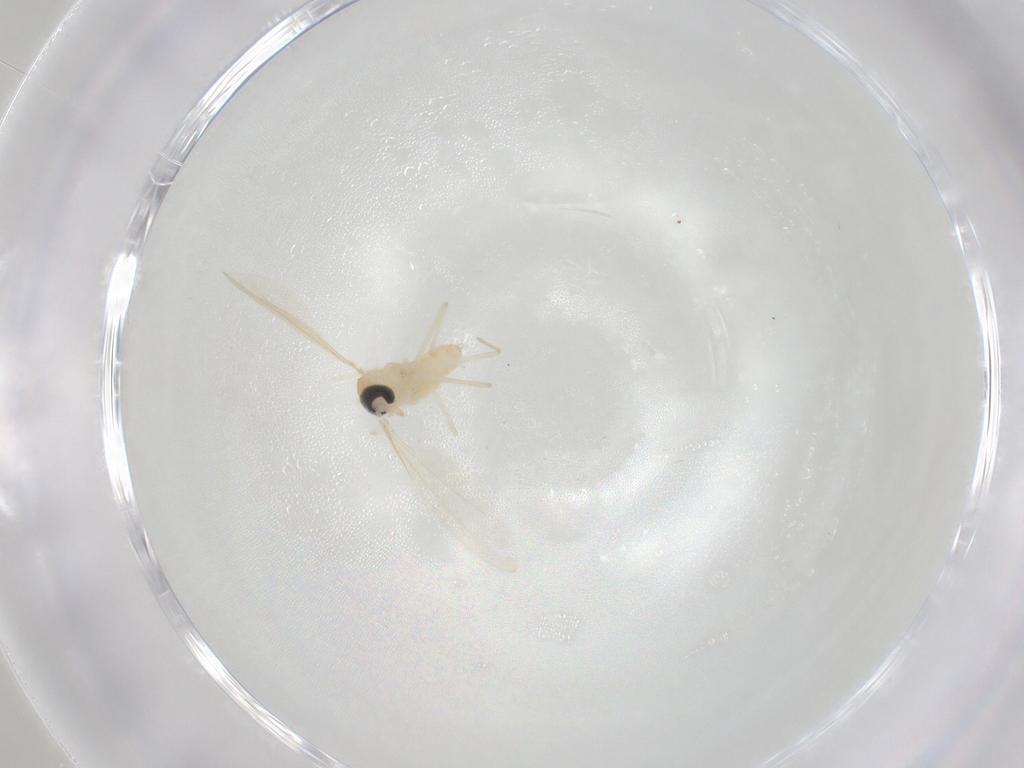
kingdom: Animalia
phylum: Arthropoda
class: Insecta
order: Diptera
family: Cecidomyiidae
